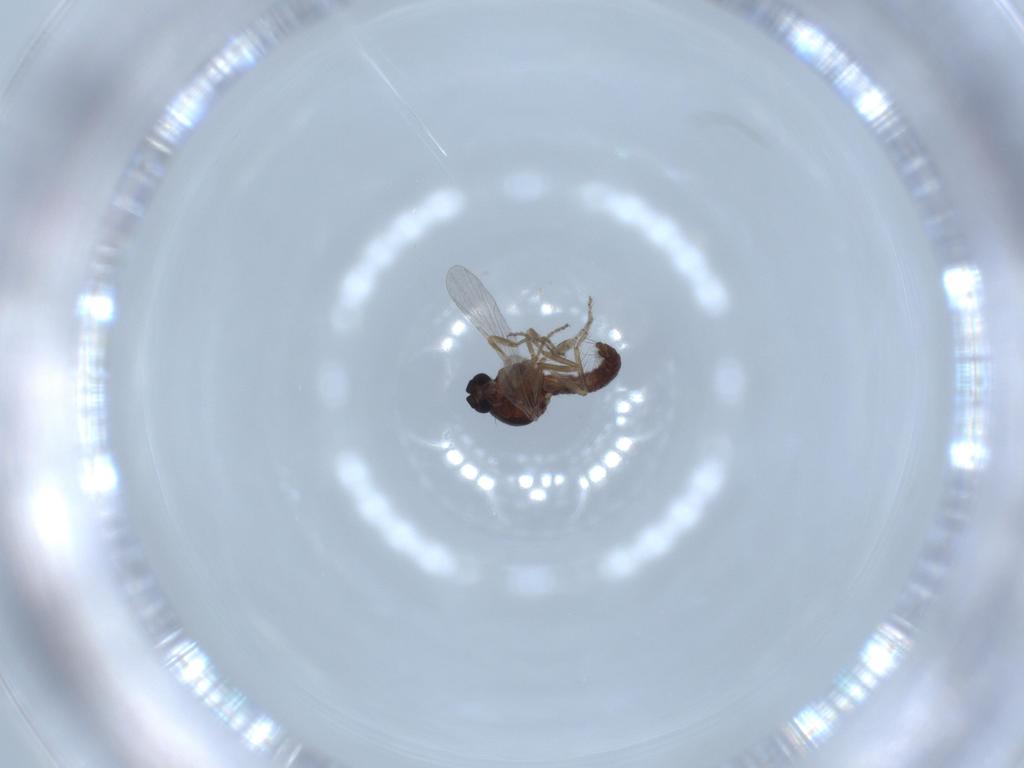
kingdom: Animalia
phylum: Arthropoda
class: Insecta
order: Diptera
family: Ceratopogonidae
